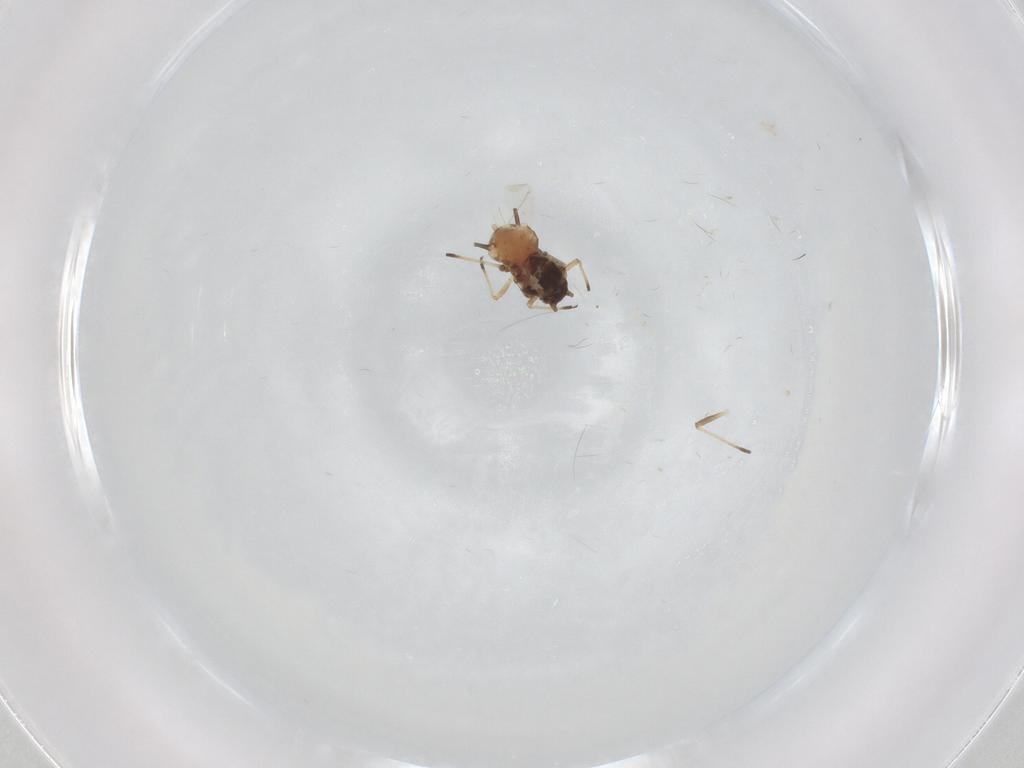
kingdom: Animalia
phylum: Arthropoda
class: Insecta
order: Hemiptera
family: Aphididae
